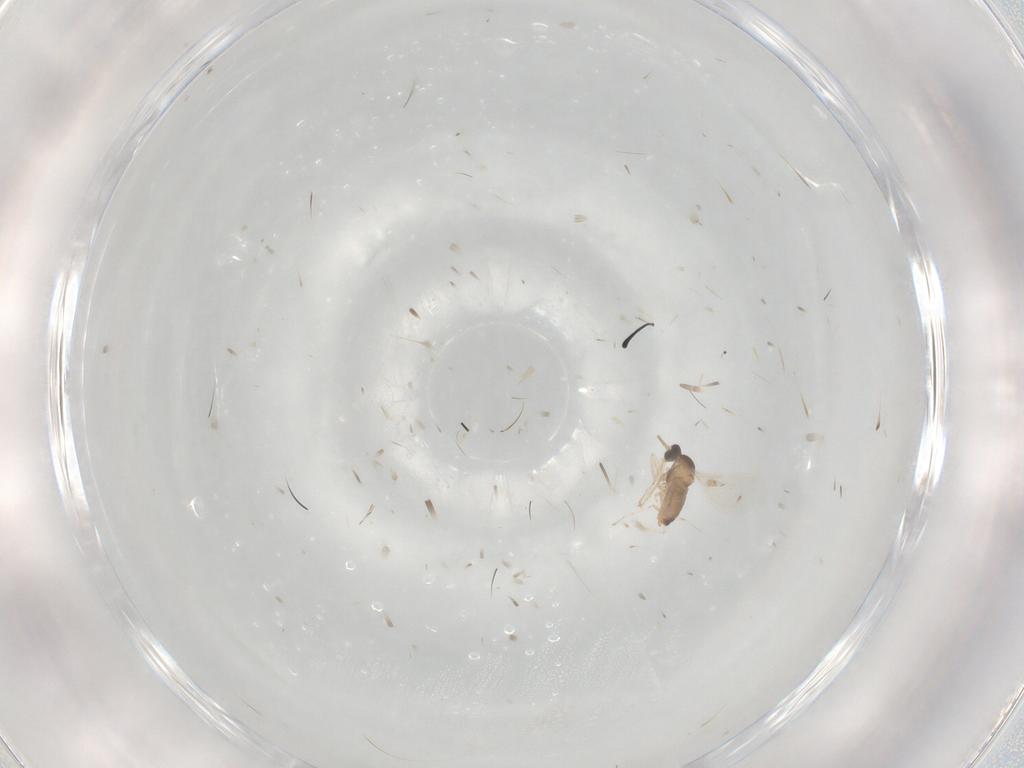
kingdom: Animalia
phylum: Arthropoda
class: Insecta
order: Diptera
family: Cecidomyiidae
